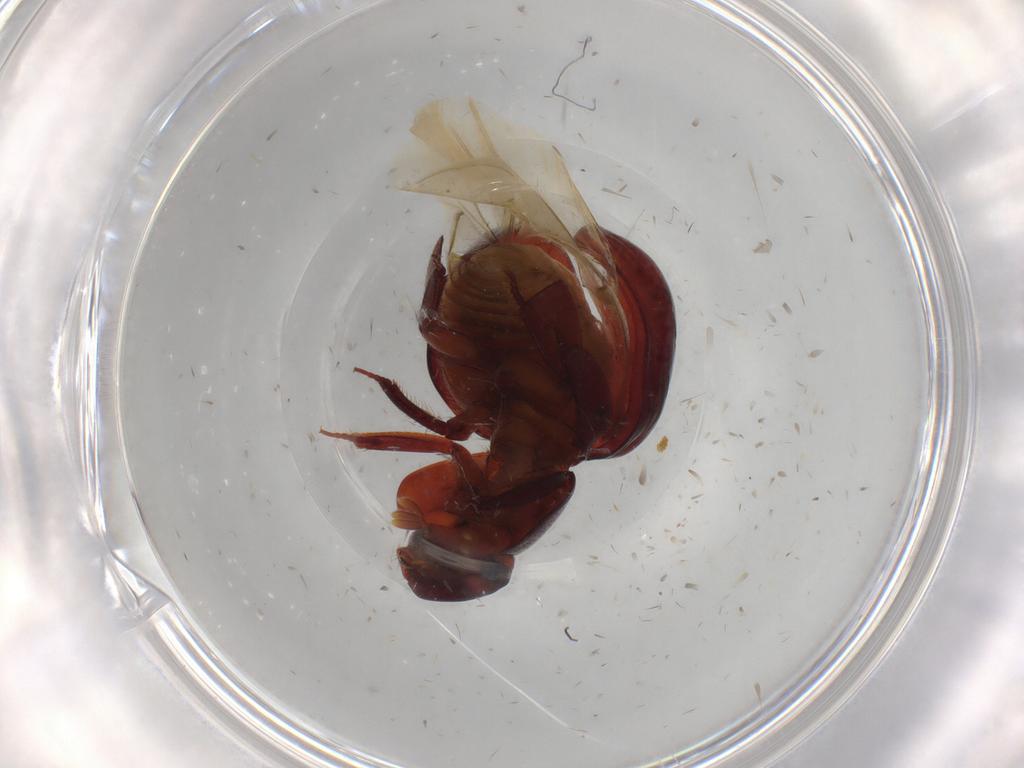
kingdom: Animalia
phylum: Arthropoda
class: Insecta
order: Coleoptera
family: Hybosoridae
